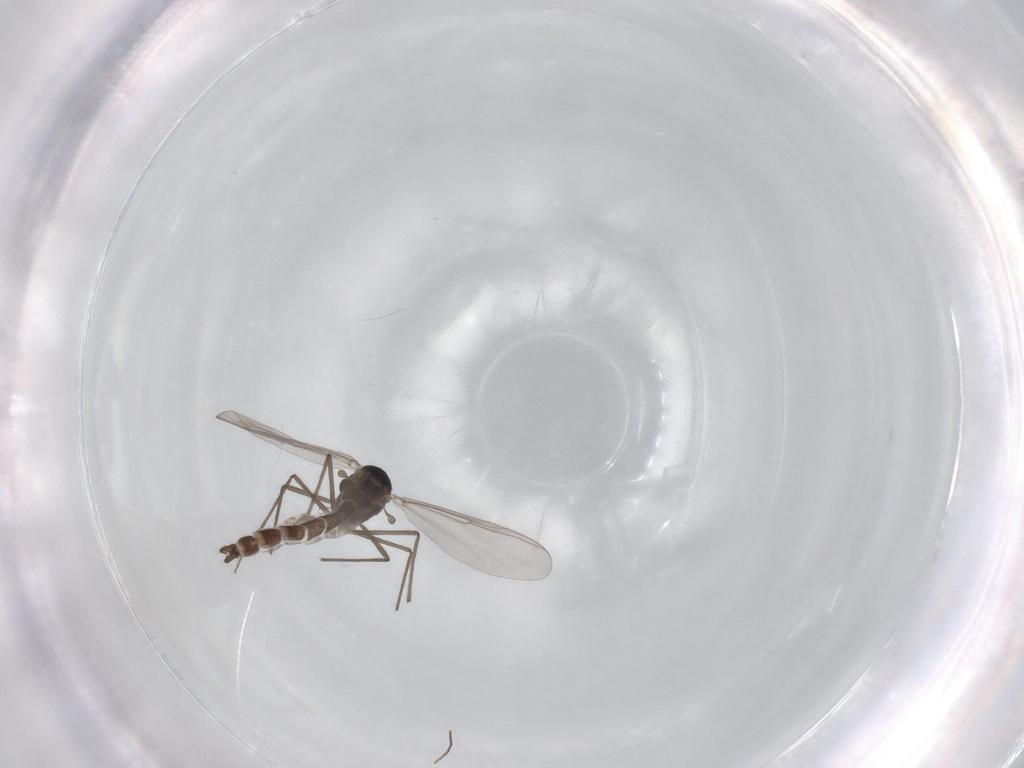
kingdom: Animalia
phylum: Arthropoda
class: Insecta
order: Diptera
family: Chironomidae
